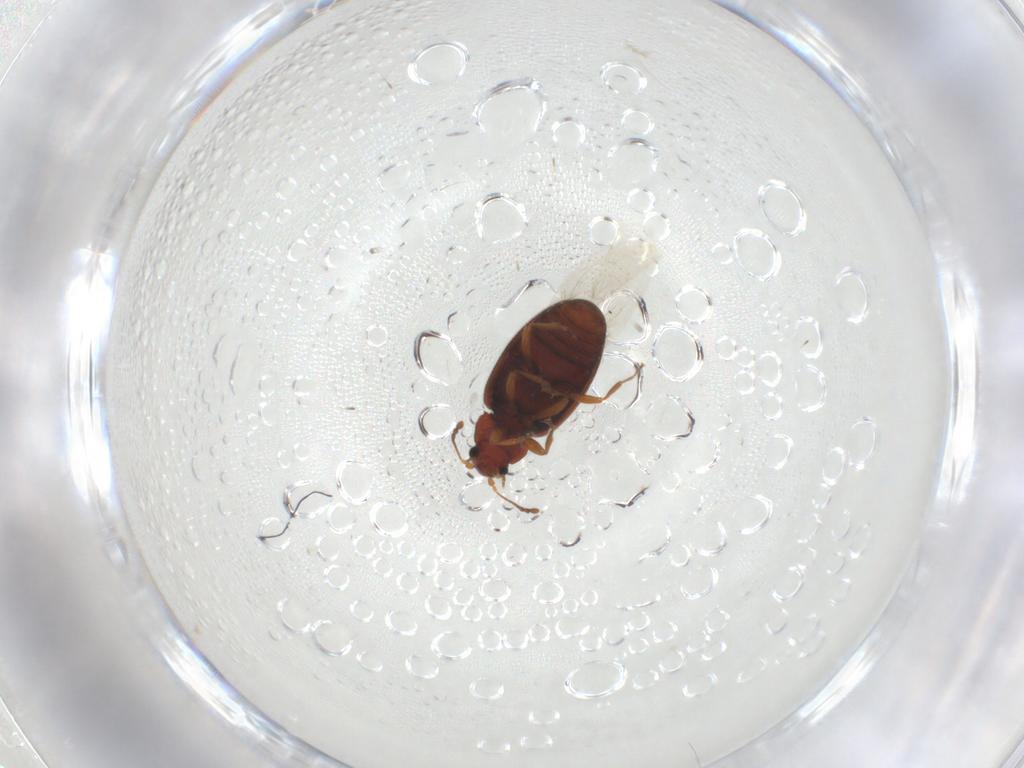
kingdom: Animalia
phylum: Arthropoda
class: Insecta
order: Coleoptera
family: Latridiidae
